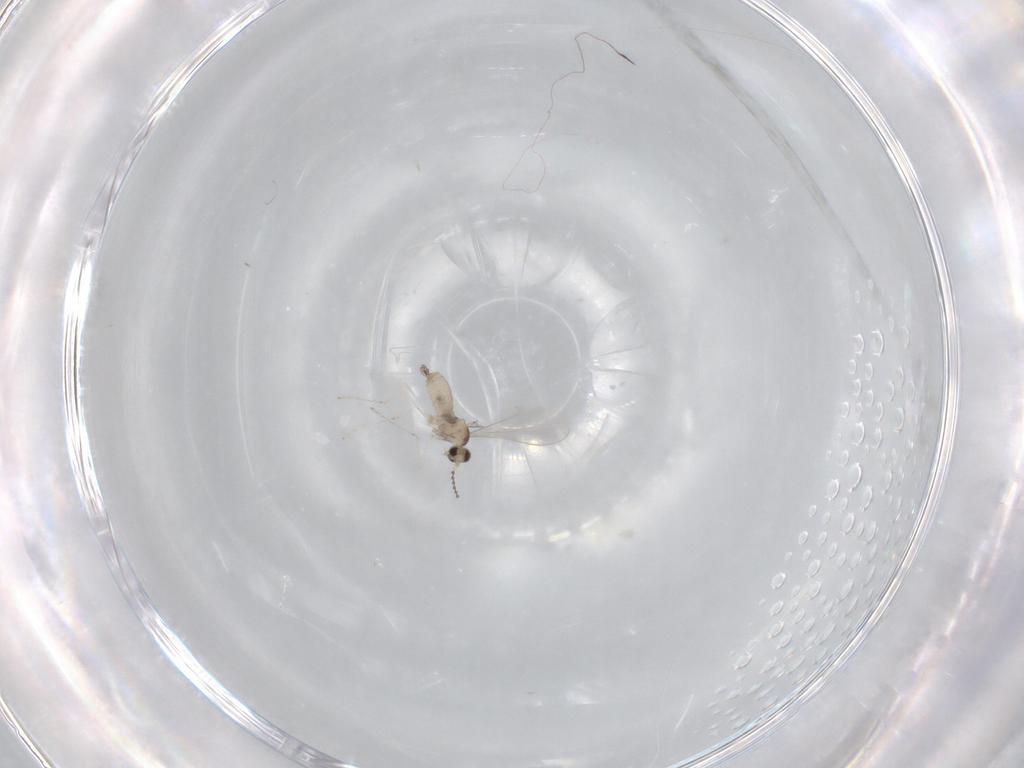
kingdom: Animalia
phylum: Arthropoda
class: Insecta
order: Diptera
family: Cecidomyiidae
